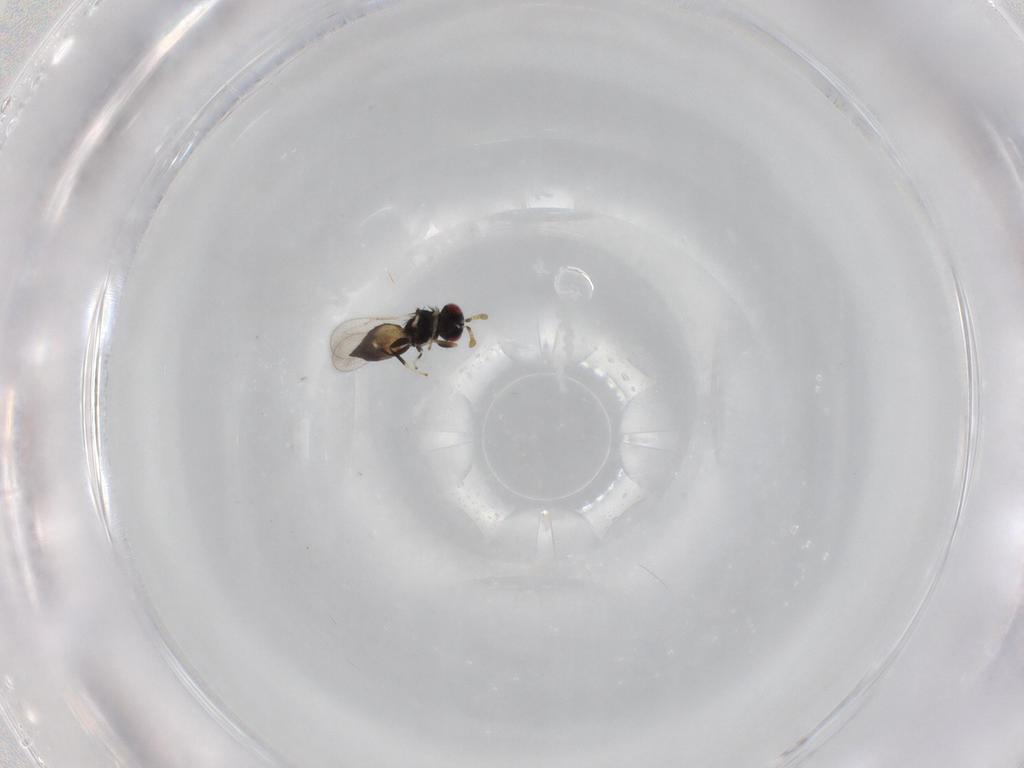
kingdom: Animalia
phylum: Arthropoda
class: Insecta
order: Hymenoptera
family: Eulophidae
